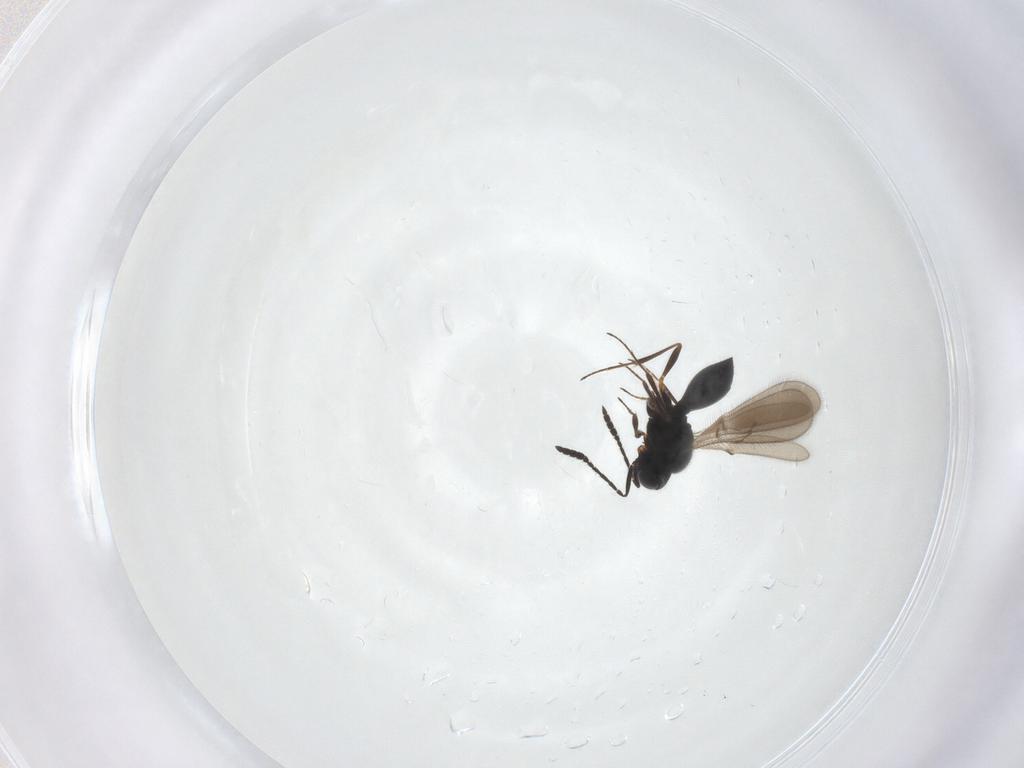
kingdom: Animalia
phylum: Arthropoda
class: Insecta
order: Hymenoptera
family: Scelionidae
